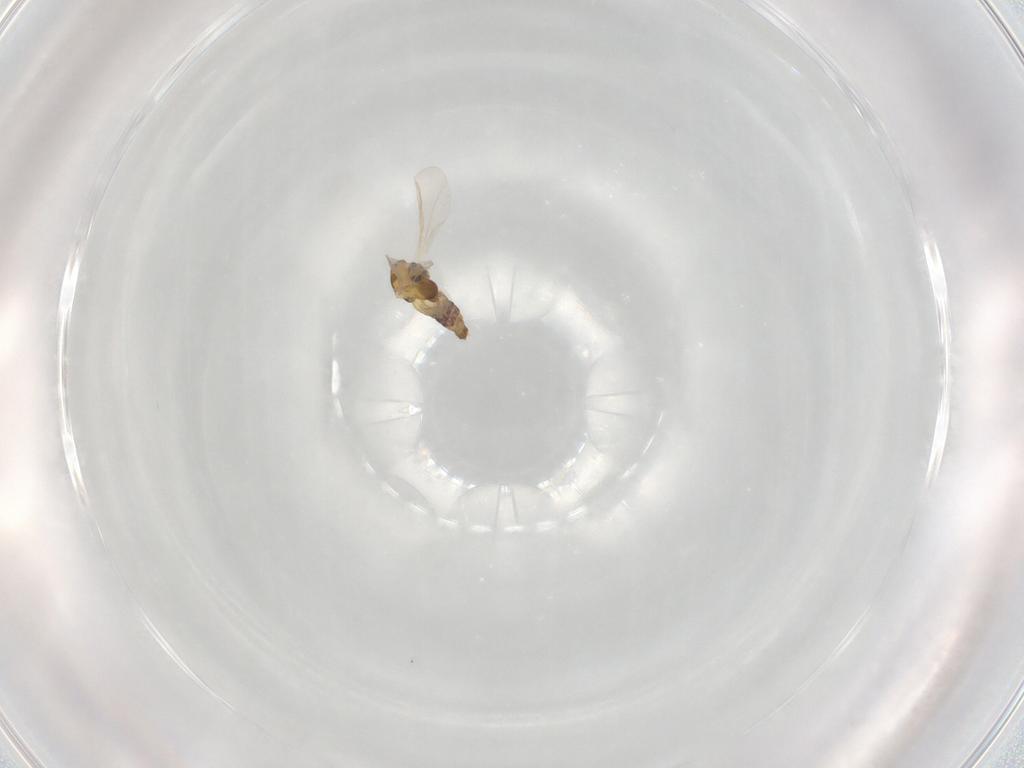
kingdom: Animalia
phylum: Arthropoda
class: Insecta
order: Diptera
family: Chironomidae
